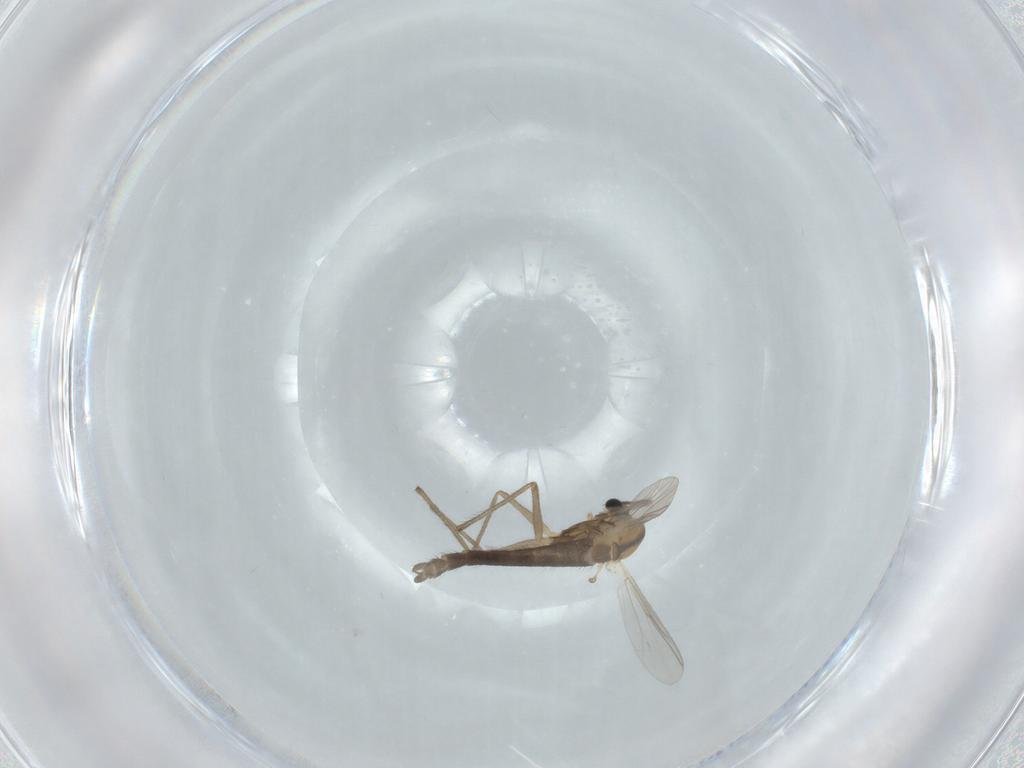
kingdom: Animalia
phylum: Arthropoda
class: Insecta
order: Diptera
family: Chironomidae
